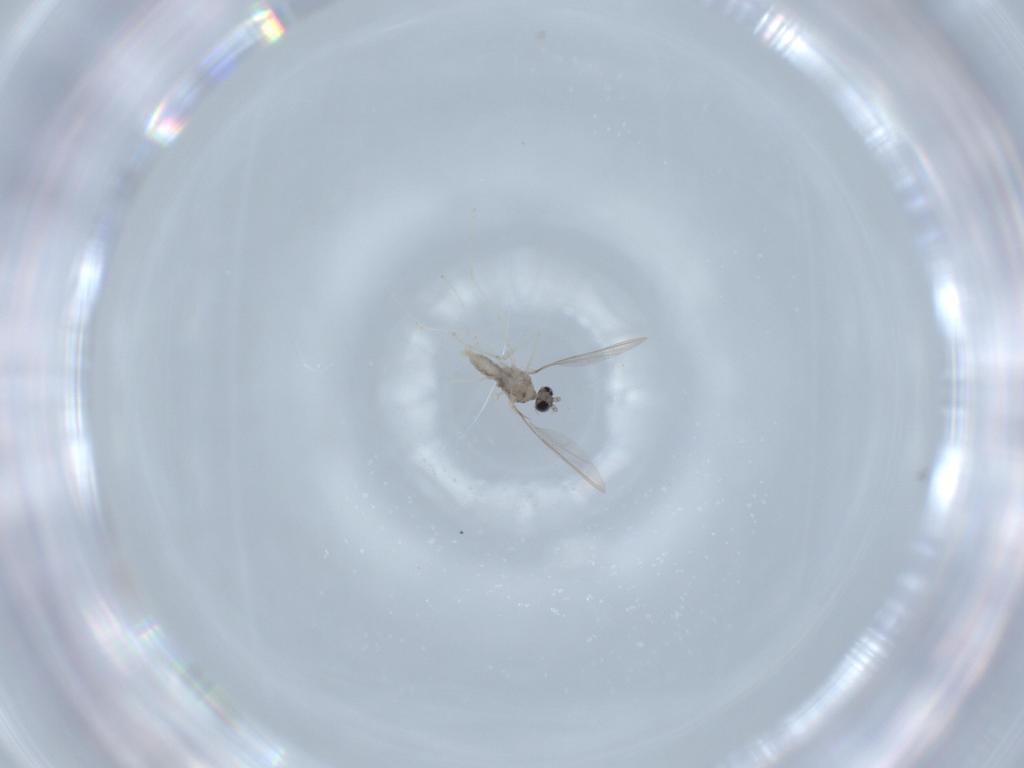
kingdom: Animalia
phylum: Arthropoda
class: Insecta
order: Diptera
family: Cecidomyiidae
